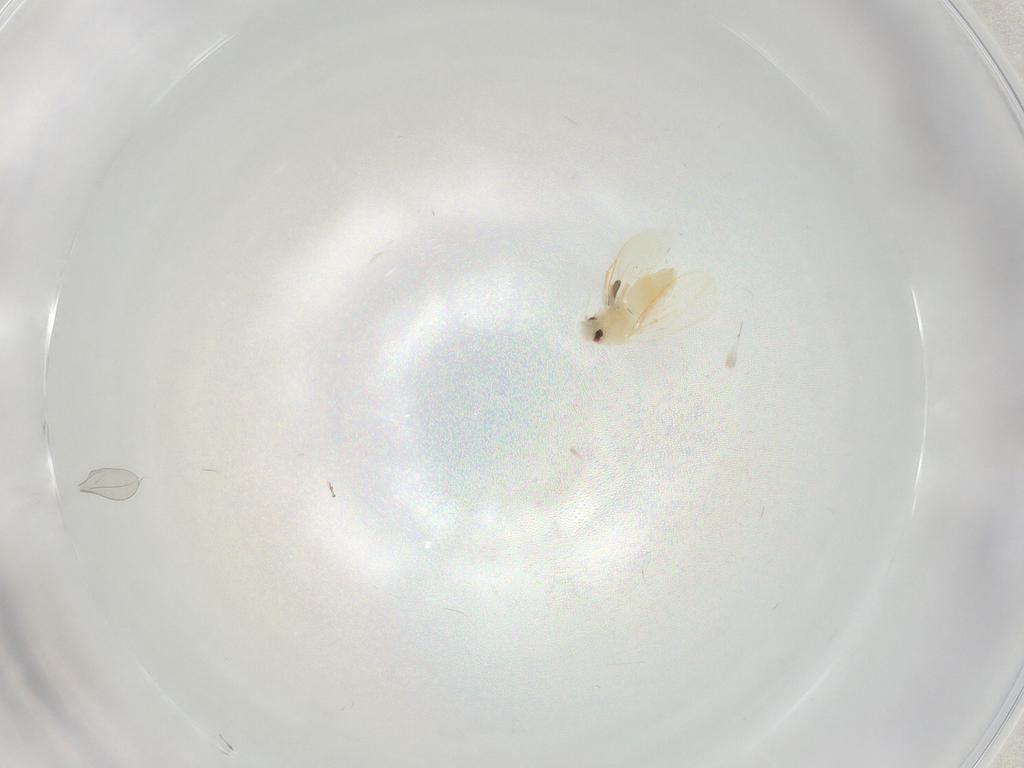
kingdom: Animalia
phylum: Arthropoda
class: Insecta
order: Hemiptera
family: Aleyrodidae
